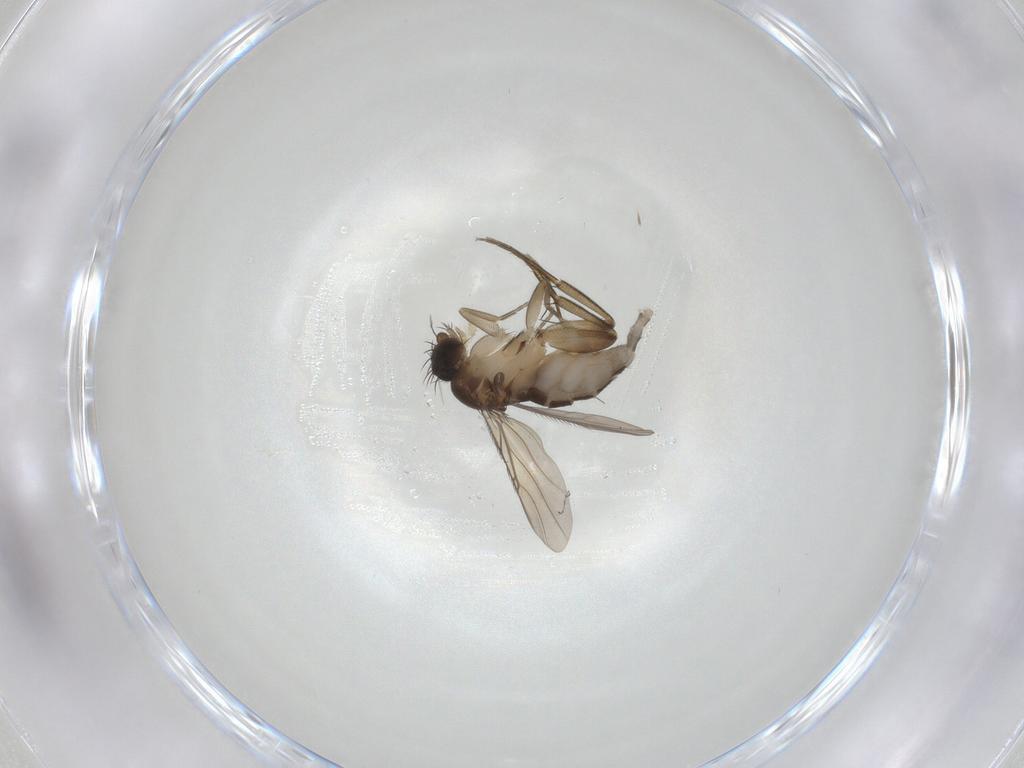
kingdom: Animalia
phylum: Arthropoda
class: Insecta
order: Diptera
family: Phoridae
